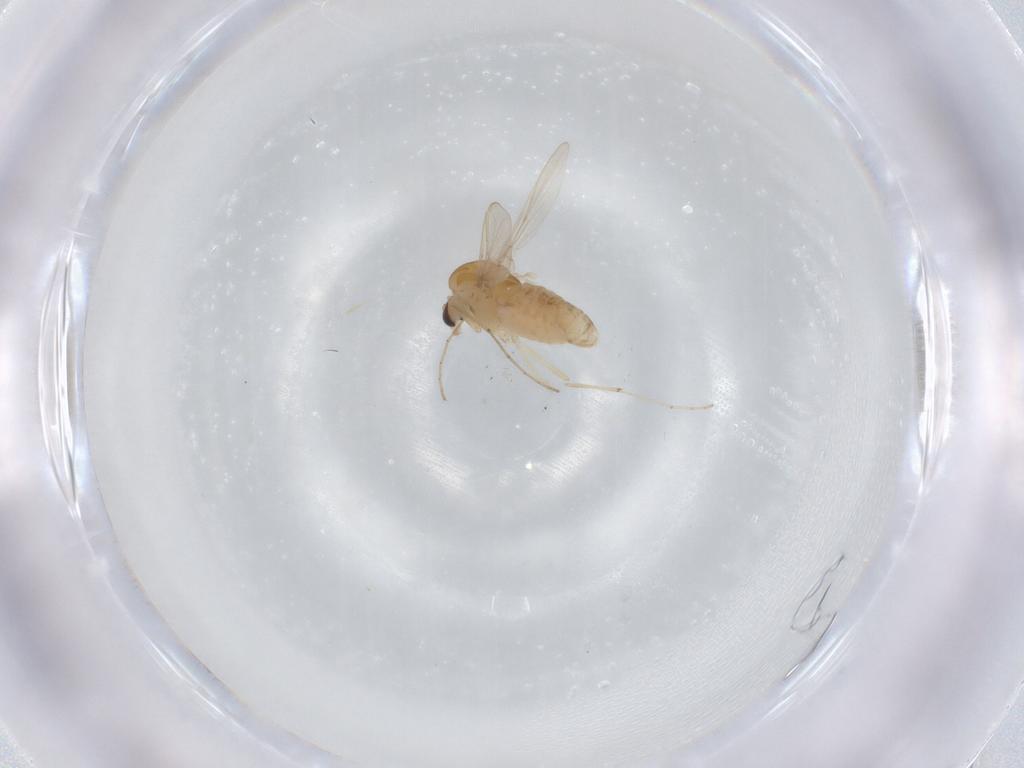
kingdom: Animalia
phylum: Arthropoda
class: Insecta
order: Diptera
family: Chironomidae
